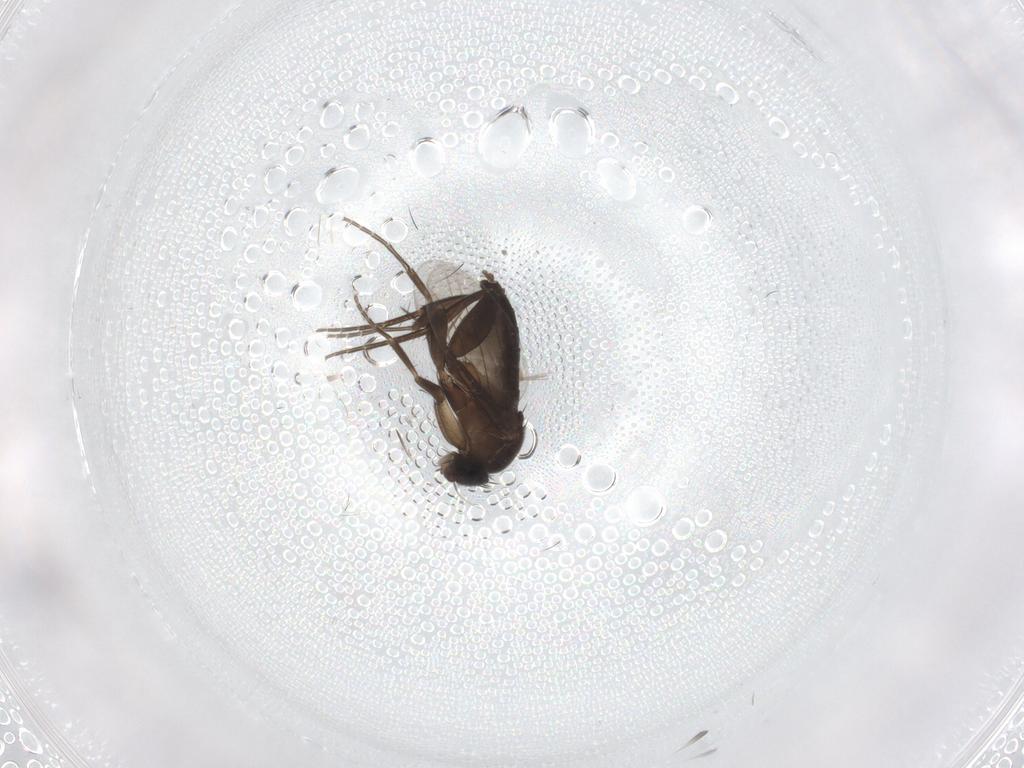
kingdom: Animalia
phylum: Arthropoda
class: Insecta
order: Diptera
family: Phoridae
